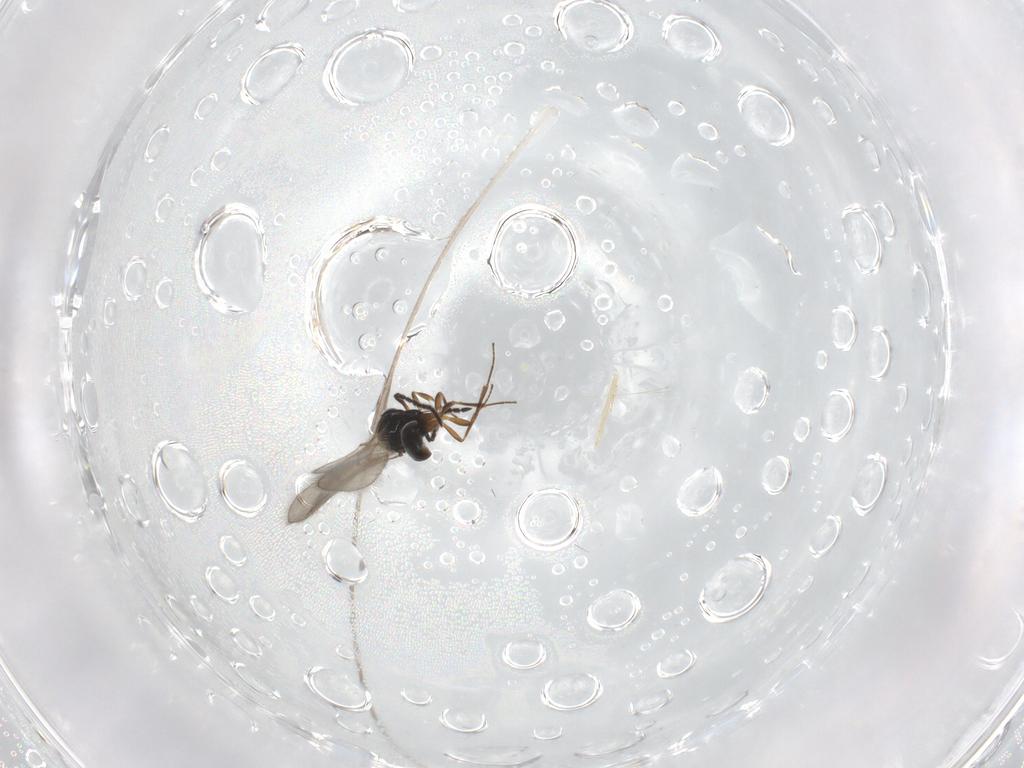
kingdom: Animalia
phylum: Arthropoda
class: Insecta
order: Hymenoptera
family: Scelionidae
